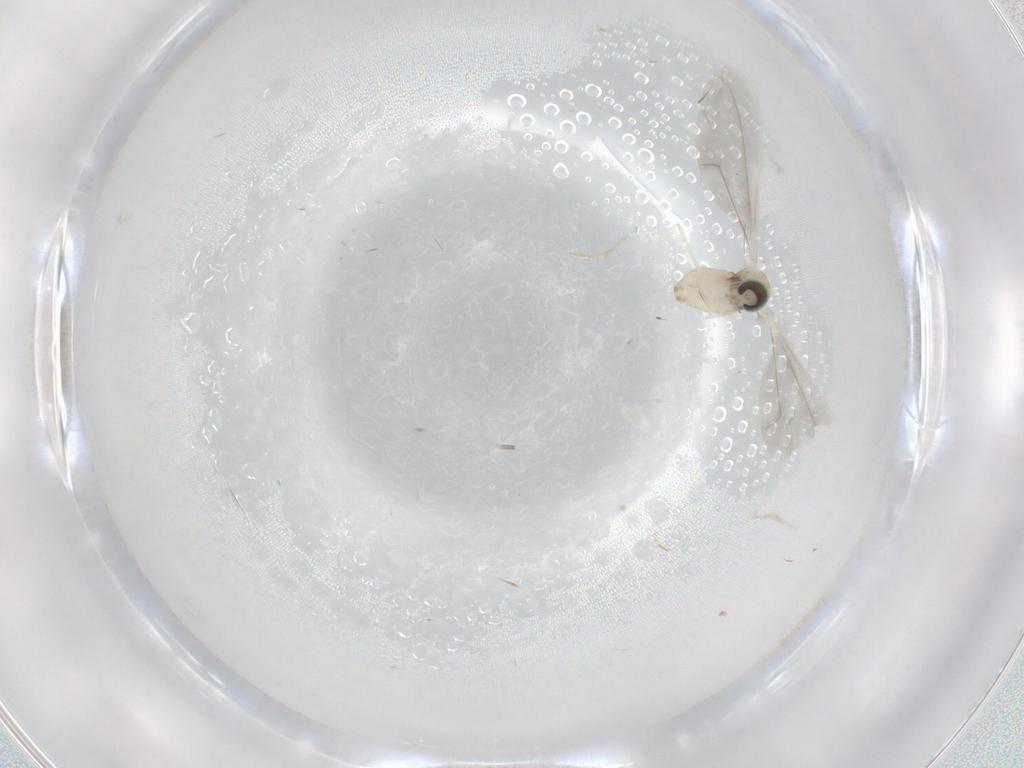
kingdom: Animalia
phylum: Arthropoda
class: Insecta
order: Diptera
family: Cecidomyiidae
